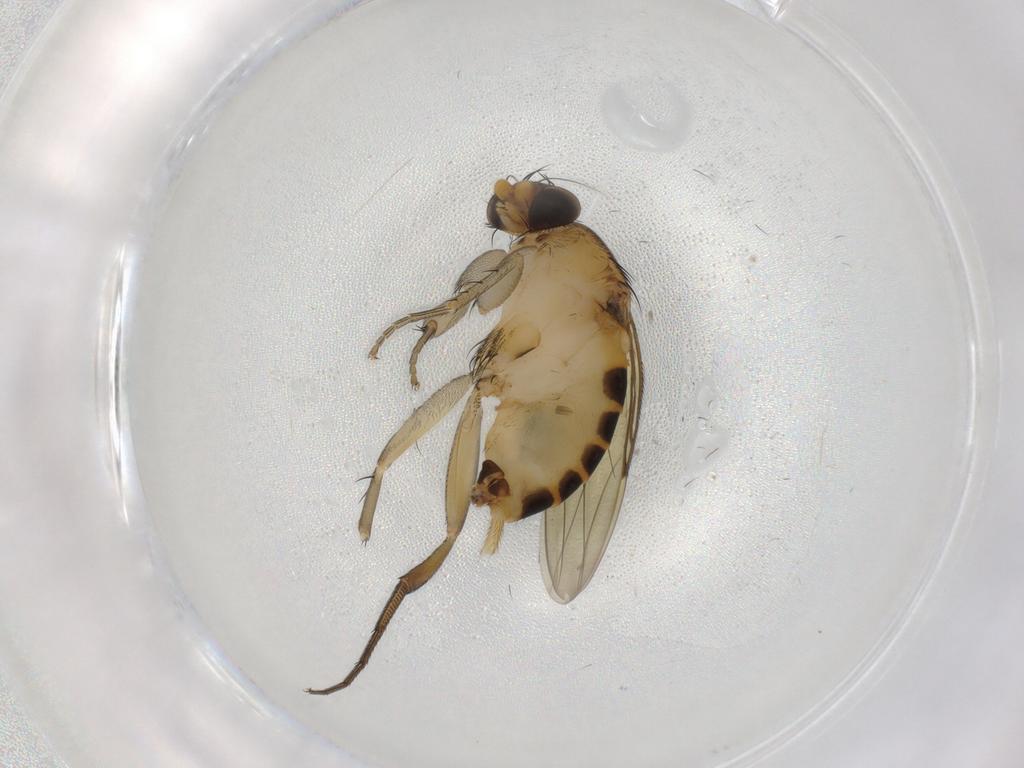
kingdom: Animalia
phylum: Arthropoda
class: Insecta
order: Diptera
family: Phoridae
